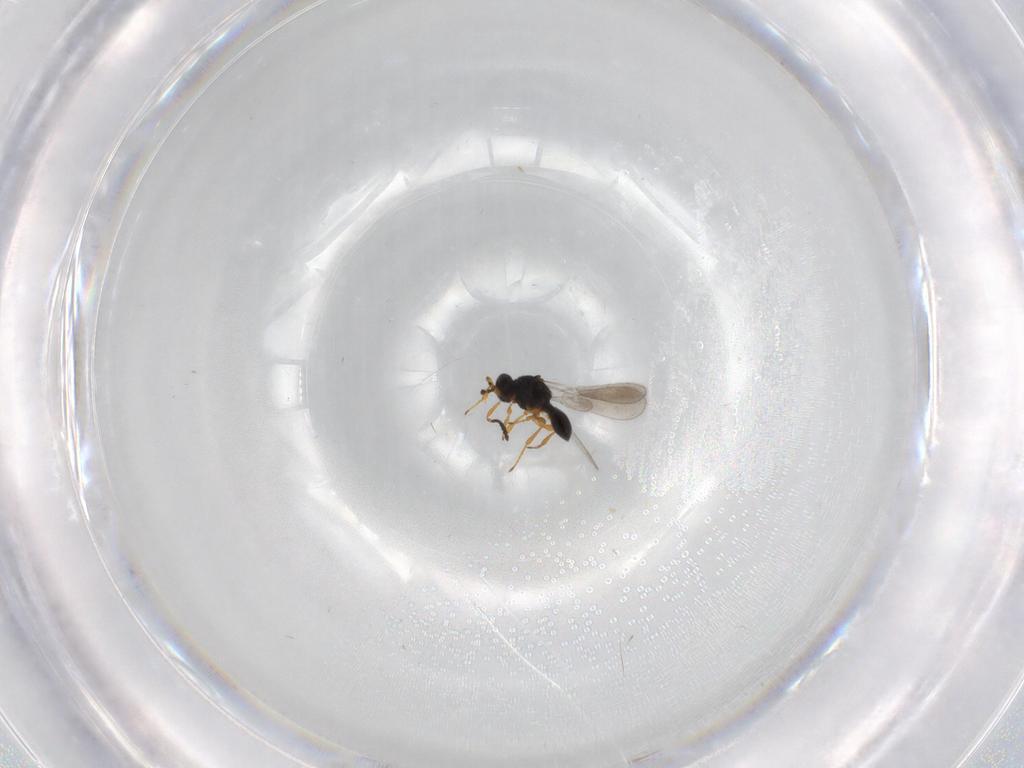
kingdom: Animalia
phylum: Arthropoda
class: Insecta
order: Hymenoptera
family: Platygastridae
